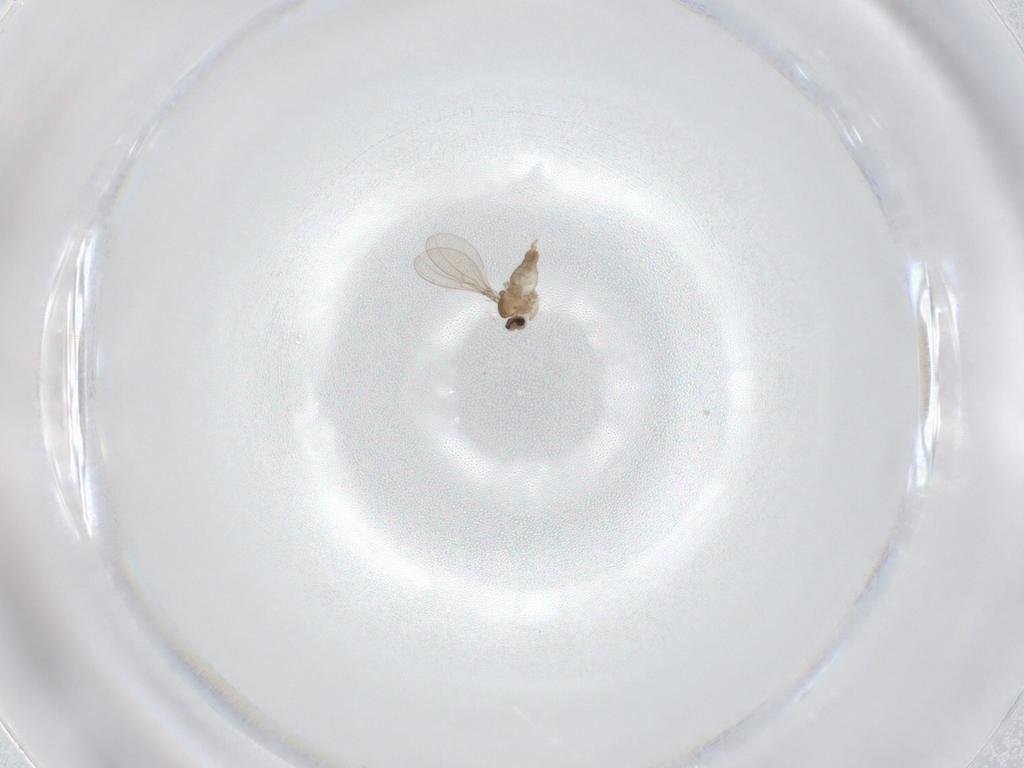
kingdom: Animalia
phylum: Arthropoda
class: Insecta
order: Diptera
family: Cecidomyiidae
